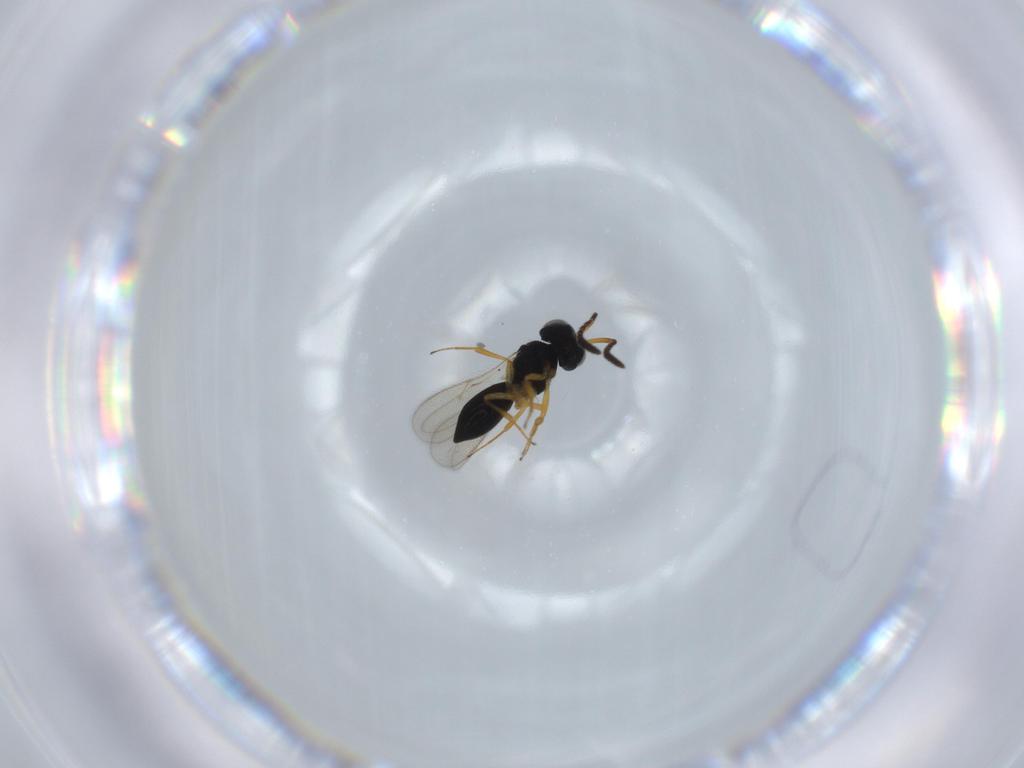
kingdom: Animalia
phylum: Arthropoda
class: Insecta
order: Hymenoptera
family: Scelionidae
